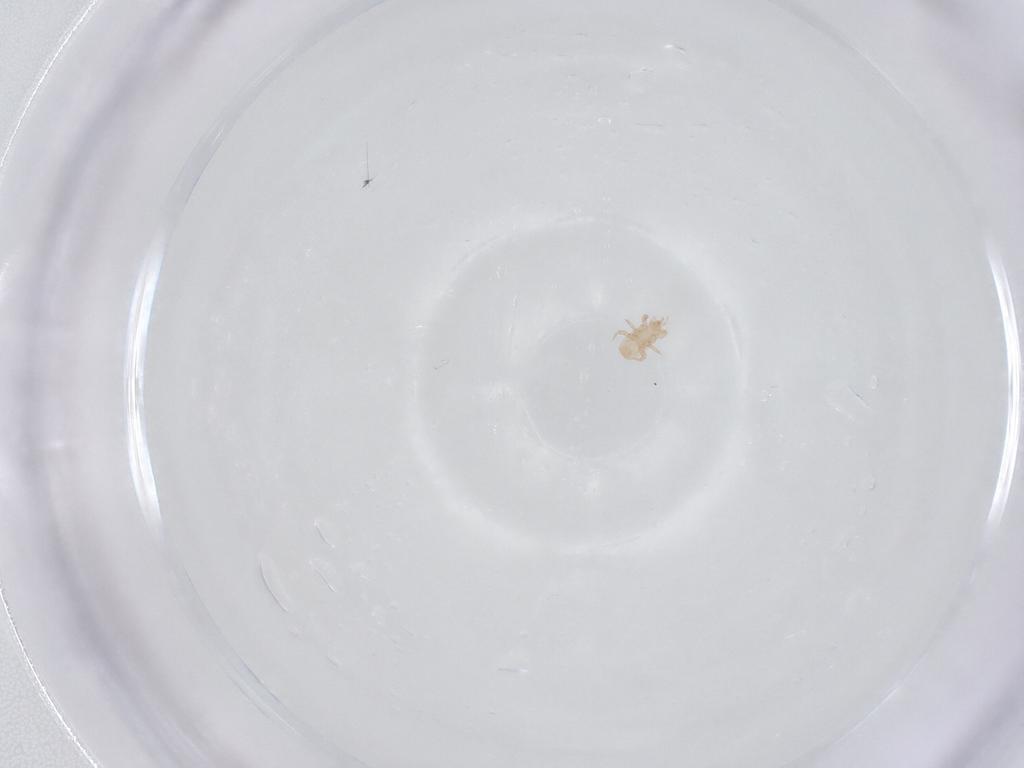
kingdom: Animalia
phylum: Arthropoda
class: Arachnida
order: Mesostigmata
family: Digamasellidae
